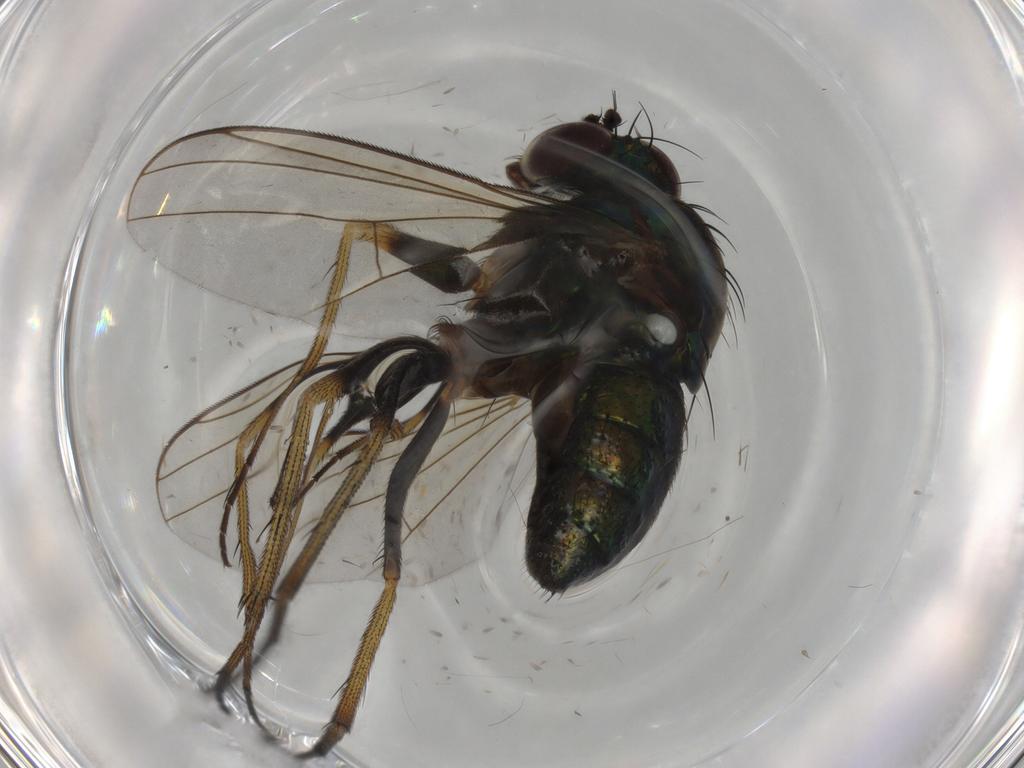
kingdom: Animalia
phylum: Arthropoda
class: Insecta
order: Diptera
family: Dolichopodidae
